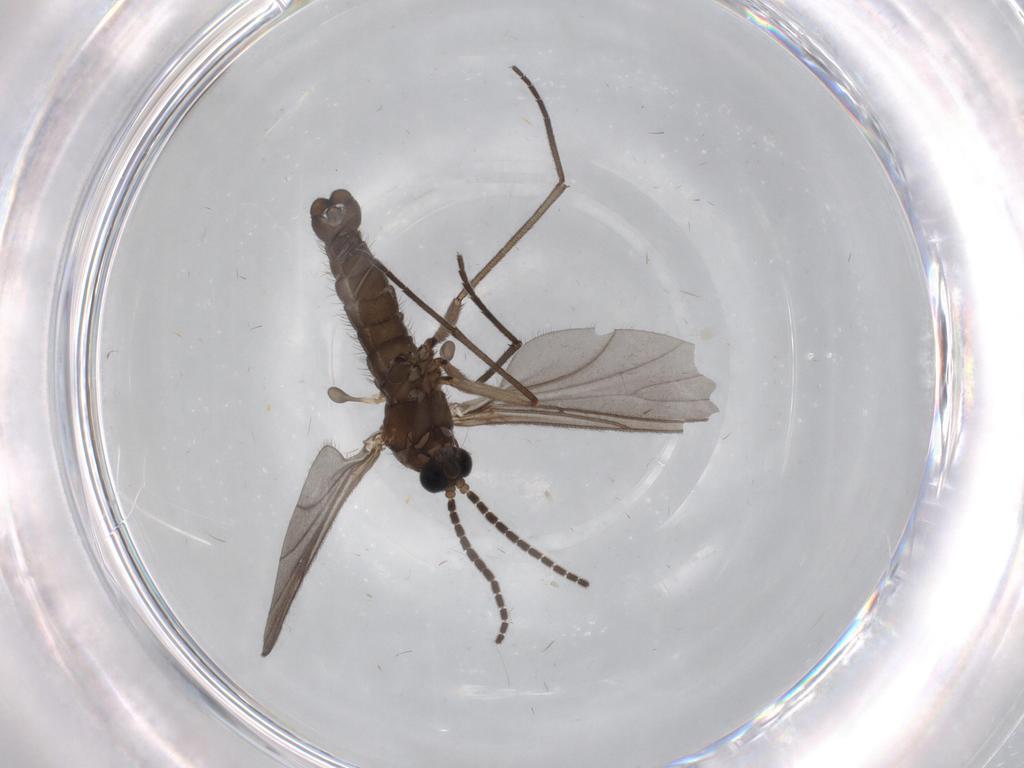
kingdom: Animalia
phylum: Arthropoda
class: Insecta
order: Diptera
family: Sciaridae
